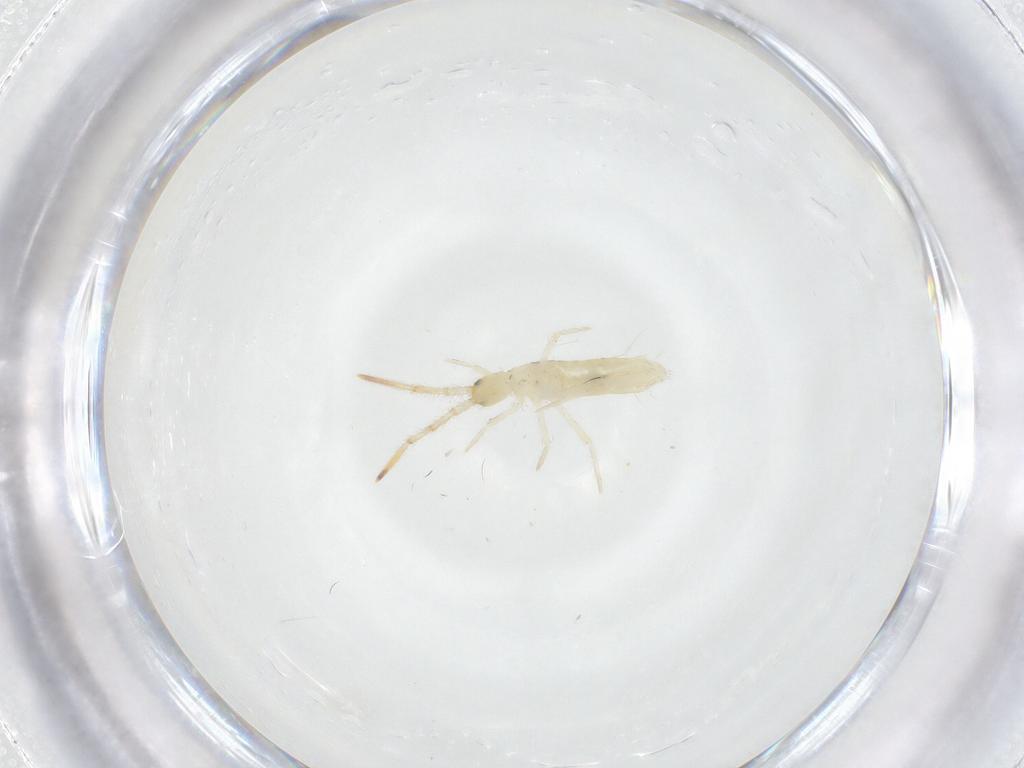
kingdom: Animalia
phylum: Arthropoda
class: Collembola
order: Entomobryomorpha
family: Entomobryidae
